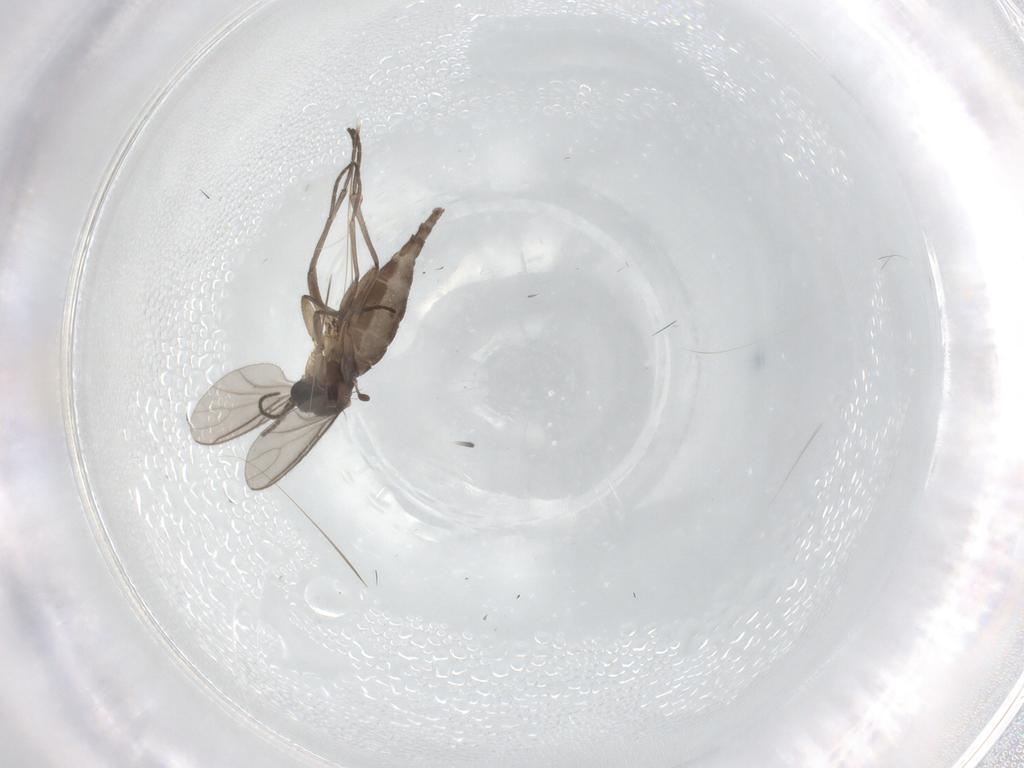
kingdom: Animalia
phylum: Arthropoda
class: Insecta
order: Diptera
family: Sciaridae
